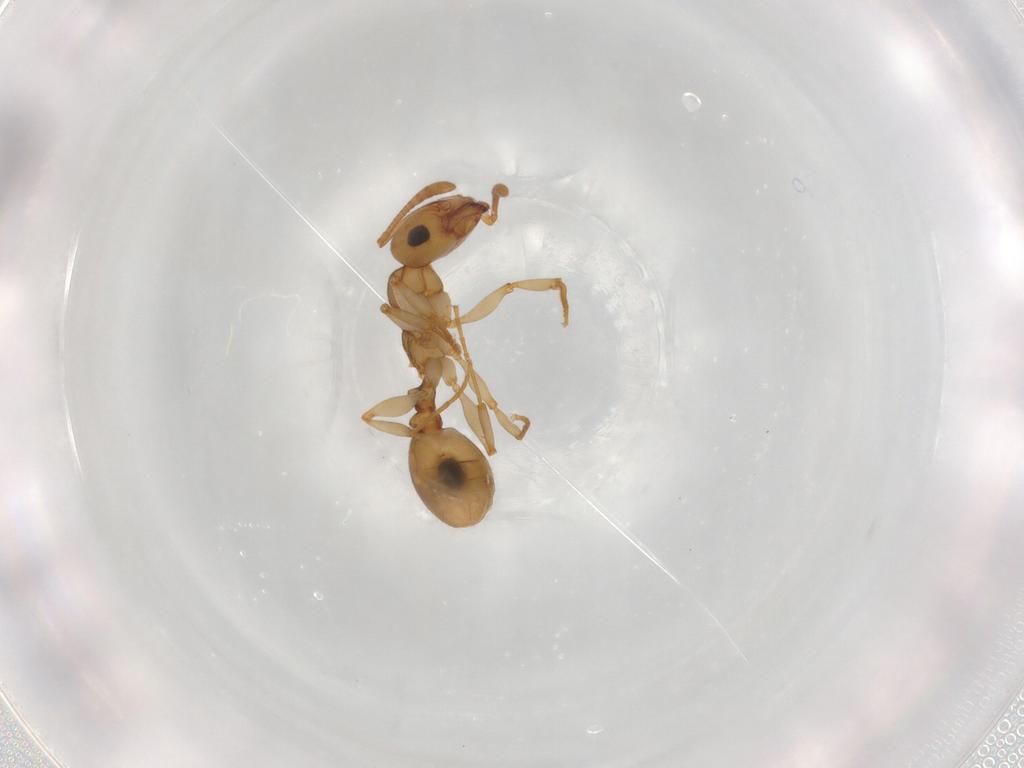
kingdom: Animalia
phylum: Arthropoda
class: Insecta
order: Hymenoptera
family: Formicidae
